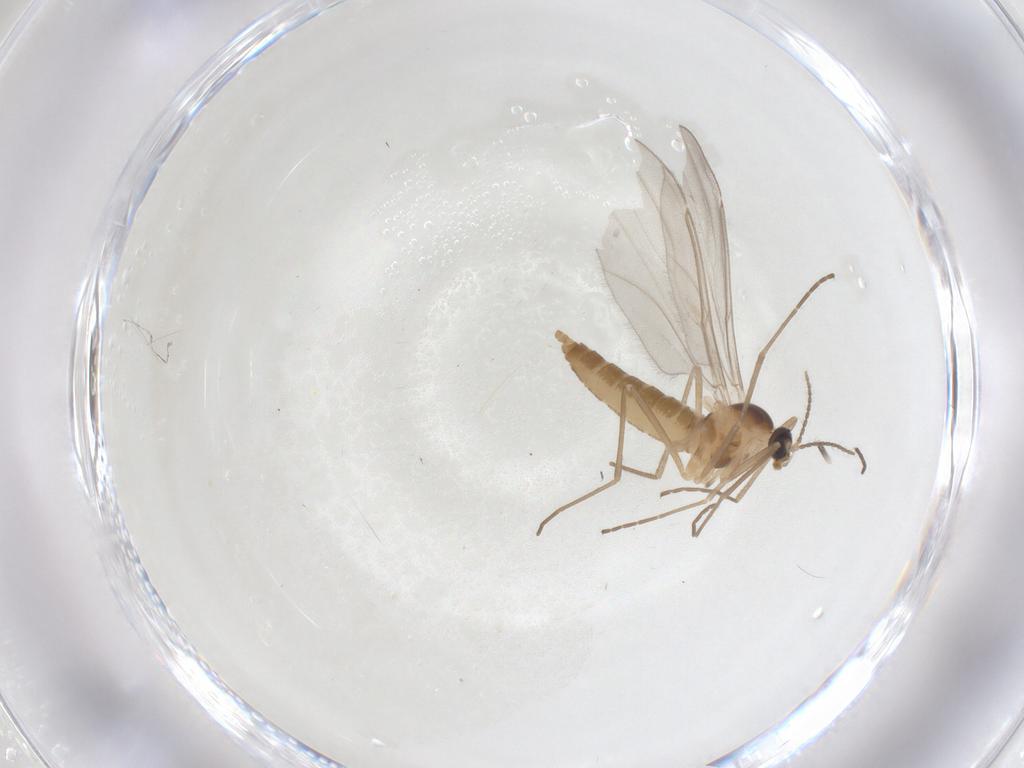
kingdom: Animalia
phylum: Arthropoda
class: Insecta
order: Diptera
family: Cecidomyiidae
